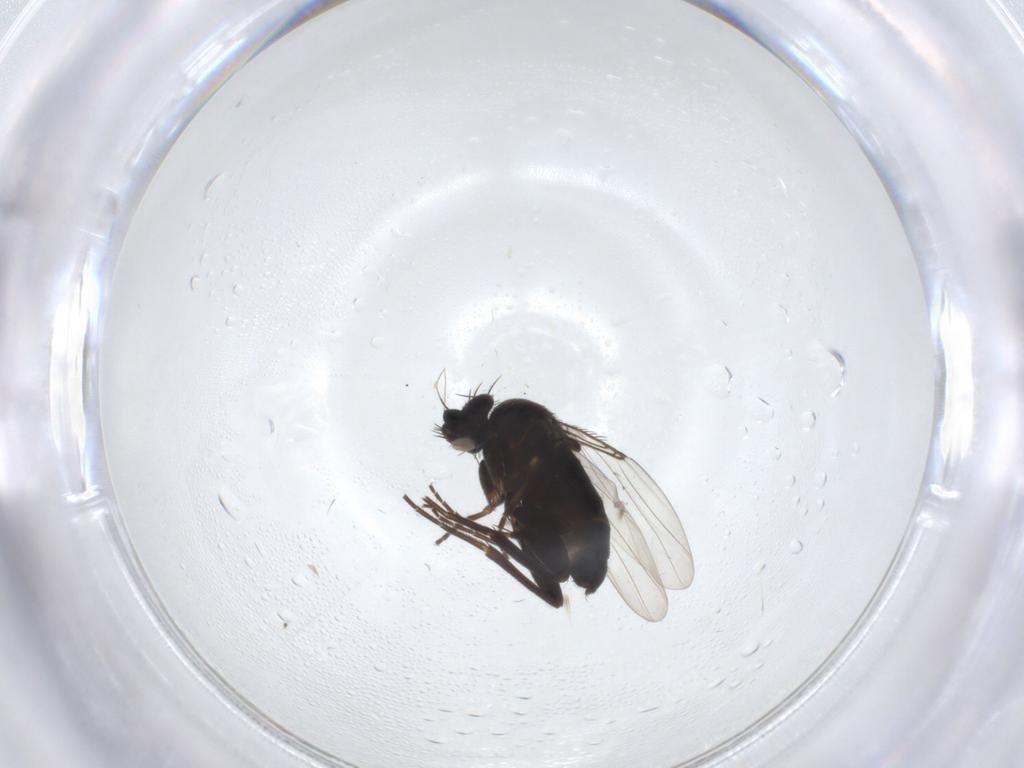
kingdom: Animalia
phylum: Arthropoda
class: Insecta
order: Diptera
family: Phoridae
